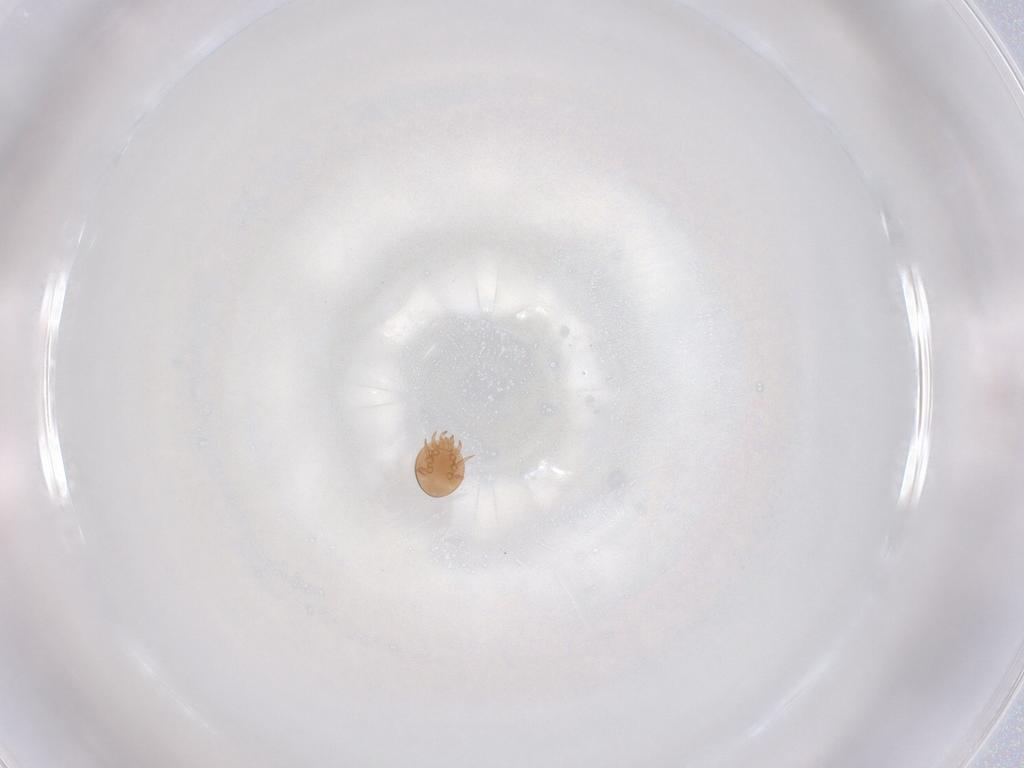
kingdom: Animalia
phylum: Arthropoda
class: Arachnida
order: Mesostigmata
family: Trematuridae
